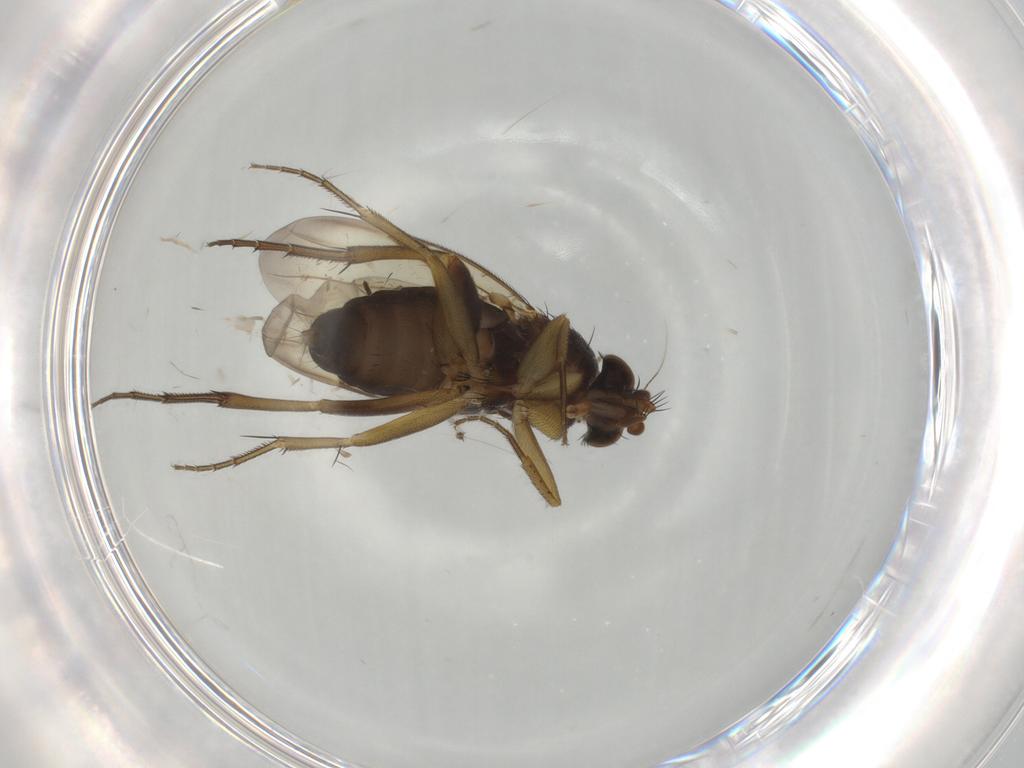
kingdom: Animalia
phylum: Arthropoda
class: Insecta
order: Diptera
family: Phoridae
